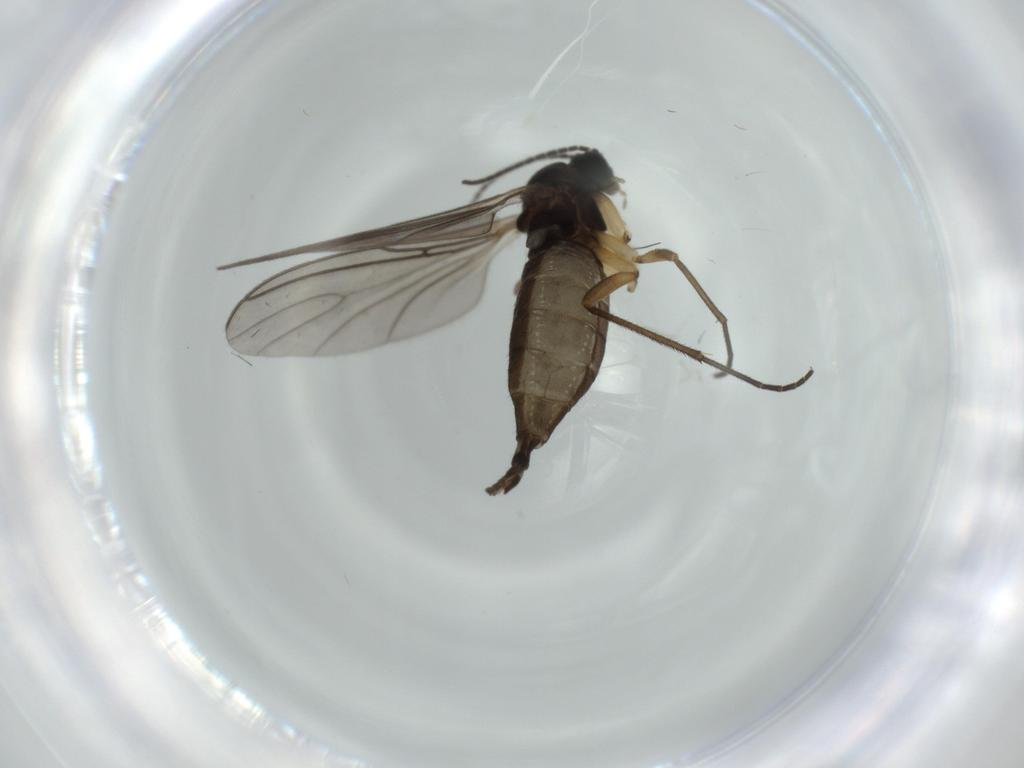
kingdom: Animalia
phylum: Arthropoda
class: Insecta
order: Diptera
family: Sciaridae
